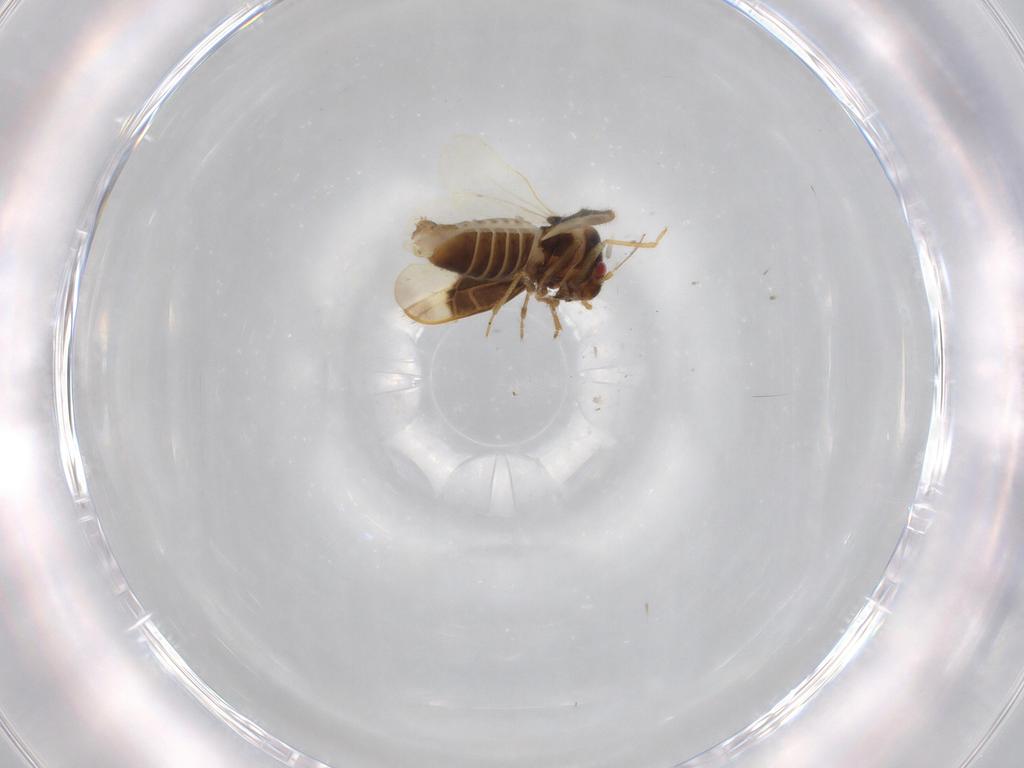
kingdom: Animalia
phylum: Arthropoda
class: Insecta
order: Hemiptera
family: Schizopteridae
